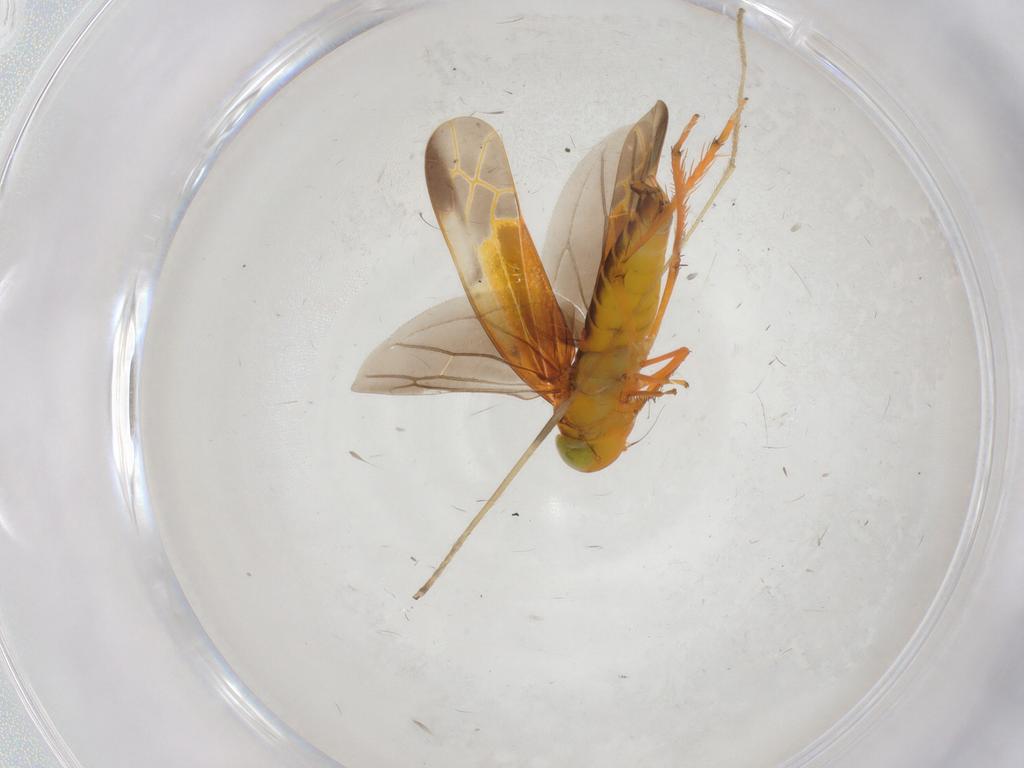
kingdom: Animalia
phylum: Arthropoda
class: Insecta
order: Hemiptera
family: Cicadellidae
